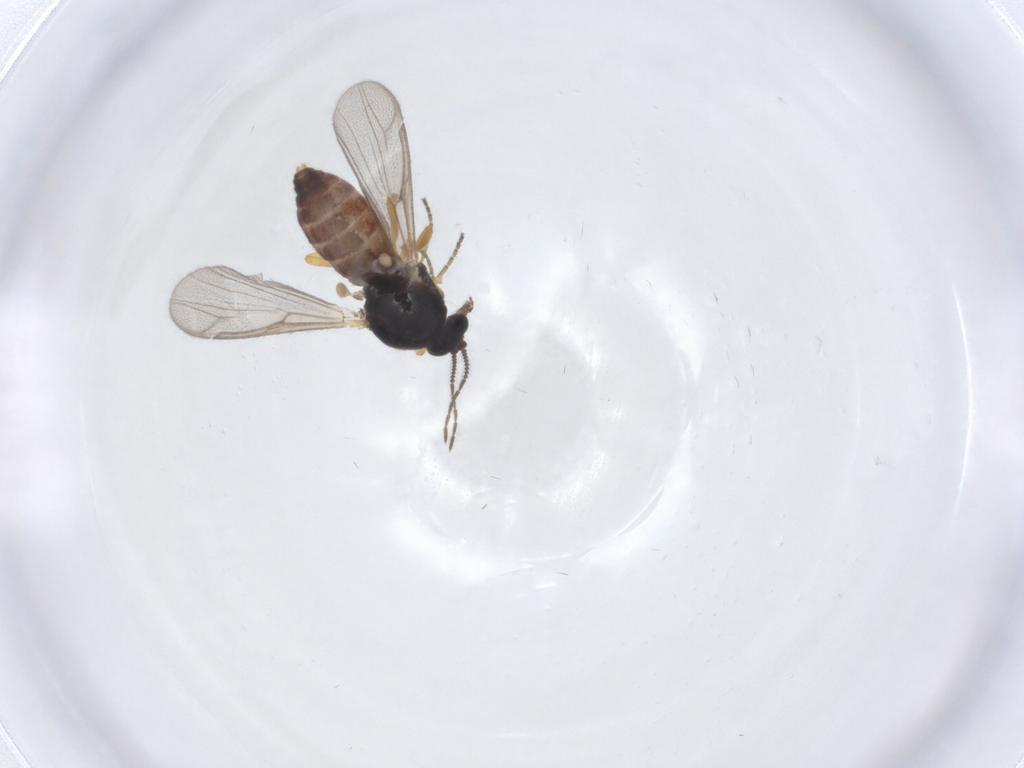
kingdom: Animalia
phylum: Arthropoda
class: Insecta
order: Diptera
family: Ceratopogonidae
